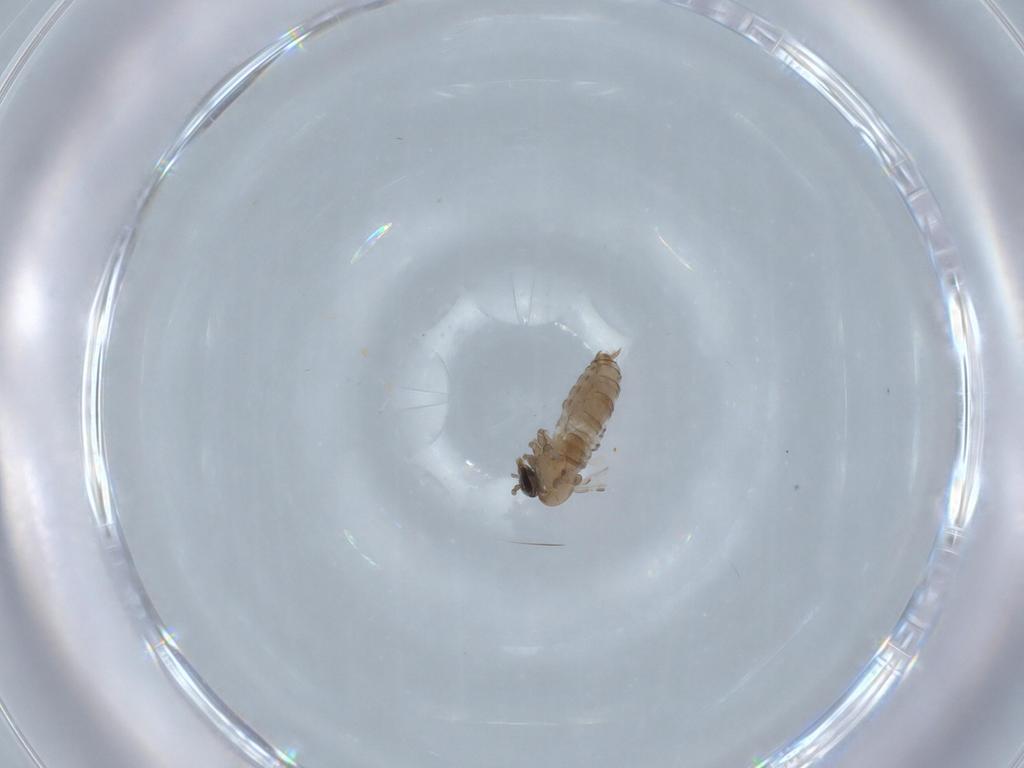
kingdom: Animalia
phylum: Arthropoda
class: Insecta
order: Diptera
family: Psychodidae
